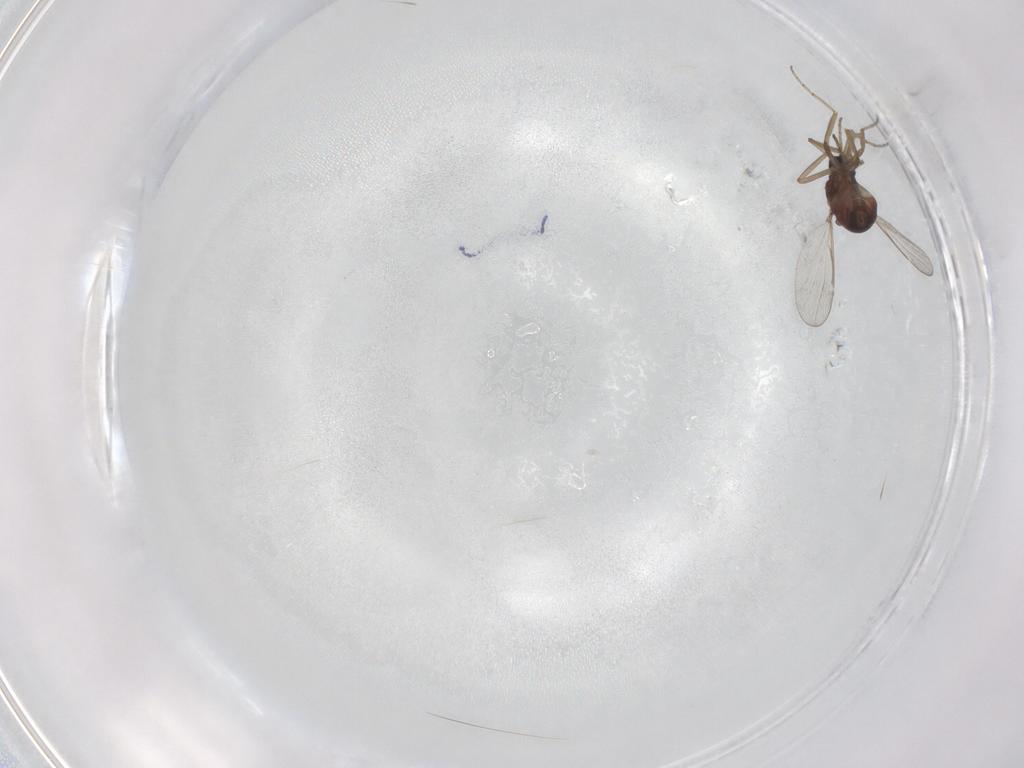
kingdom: Animalia
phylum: Arthropoda
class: Insecta
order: Diptera
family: Ceratopogonidae
